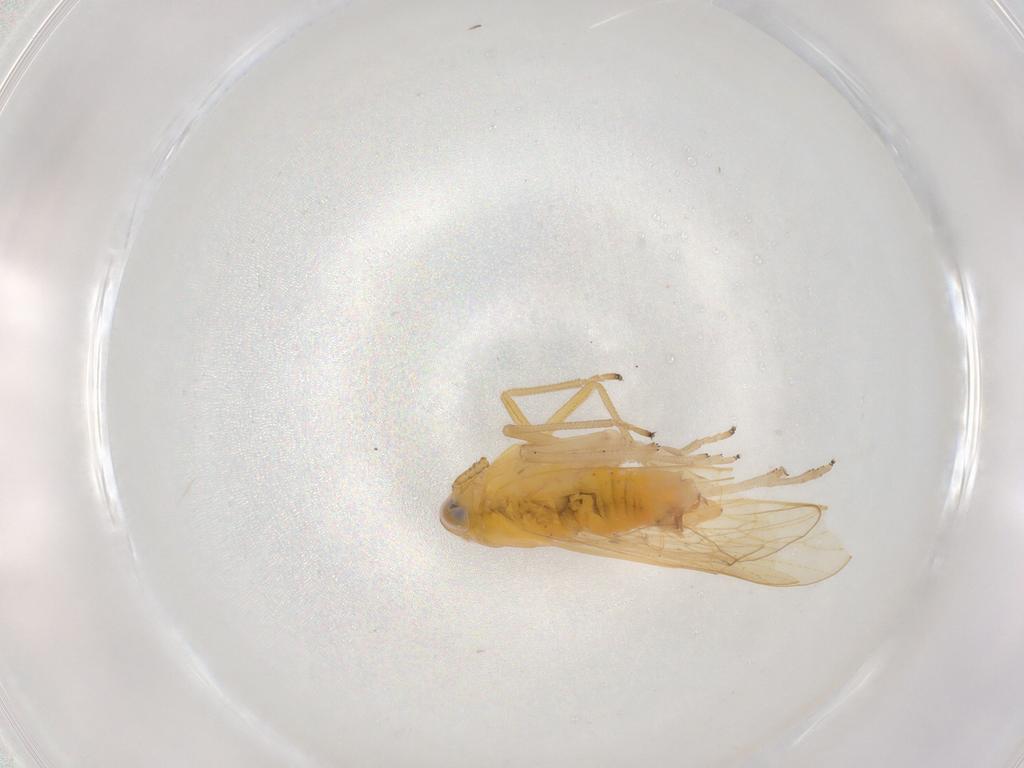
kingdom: Animalia
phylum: Arthropoda
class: Insecta
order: Hemiptera
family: Delphacidae
